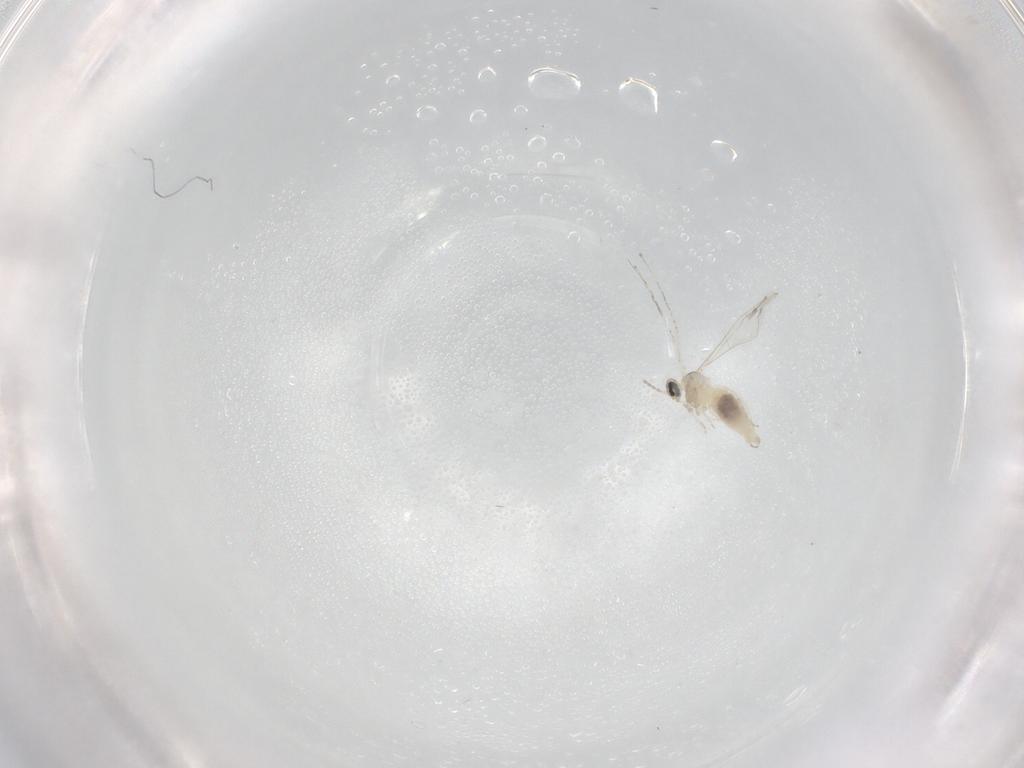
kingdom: Animalia
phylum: Arthropoda
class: Insecta
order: Diptera
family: Cecidomyiidae
